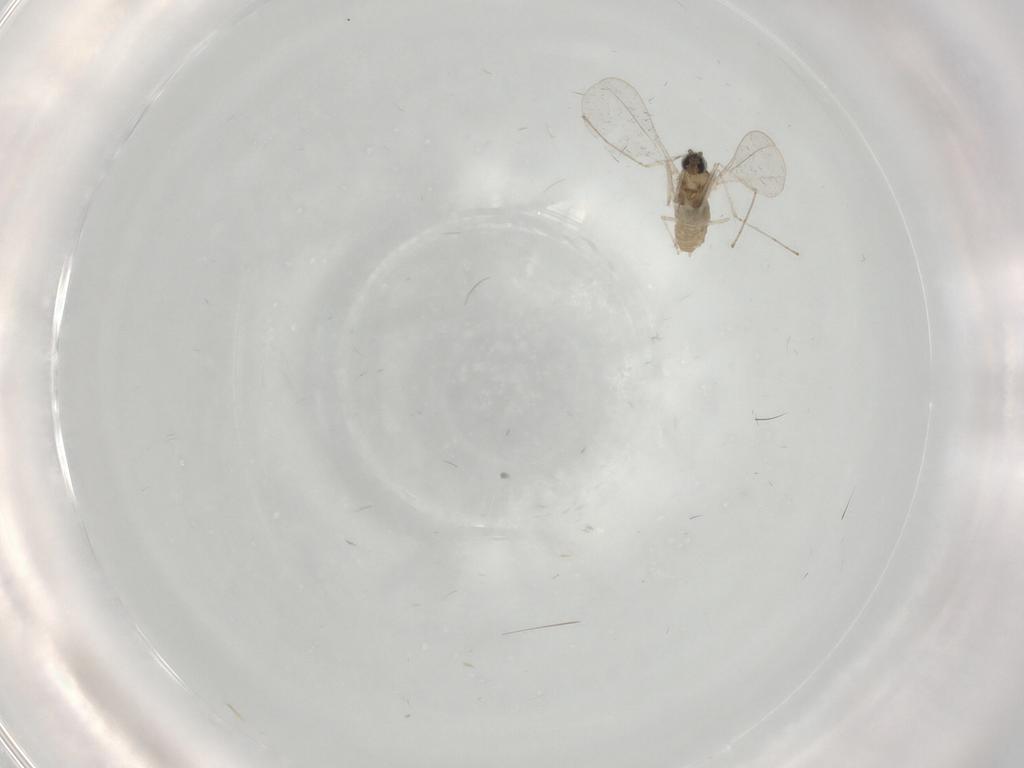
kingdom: Animalia
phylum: Arthropoda
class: Insecta
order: Diptera
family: Cecidomyiidae
